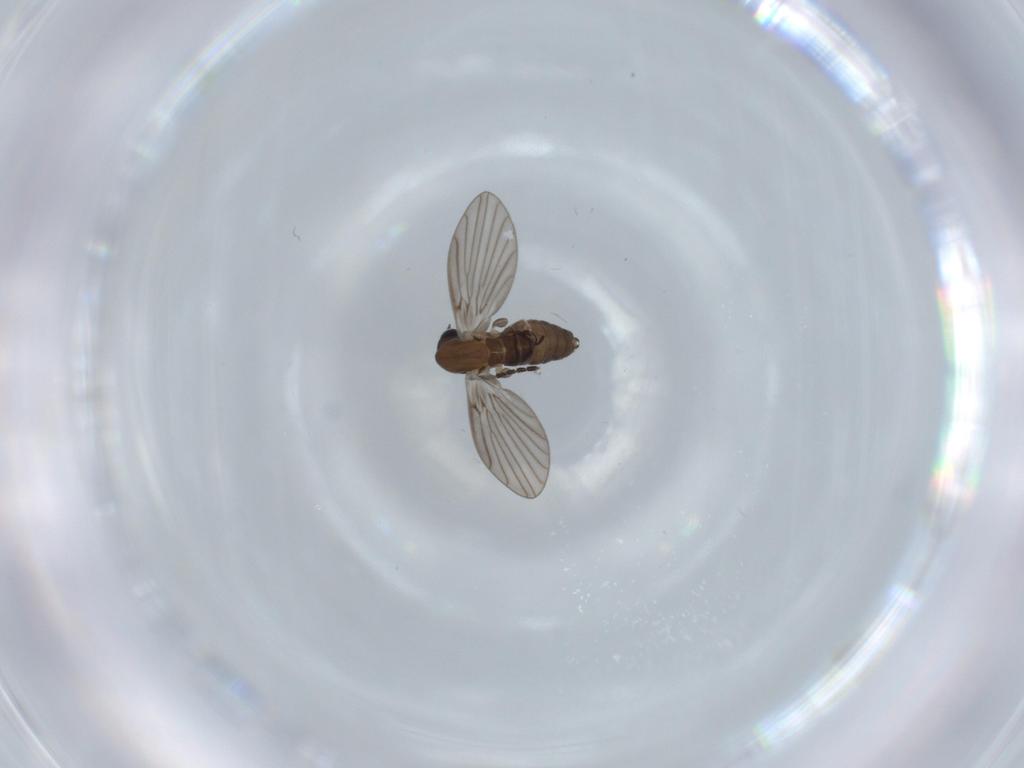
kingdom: Animalia
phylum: Arthropoda
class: Insecta
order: Diptera
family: Sciaridae
